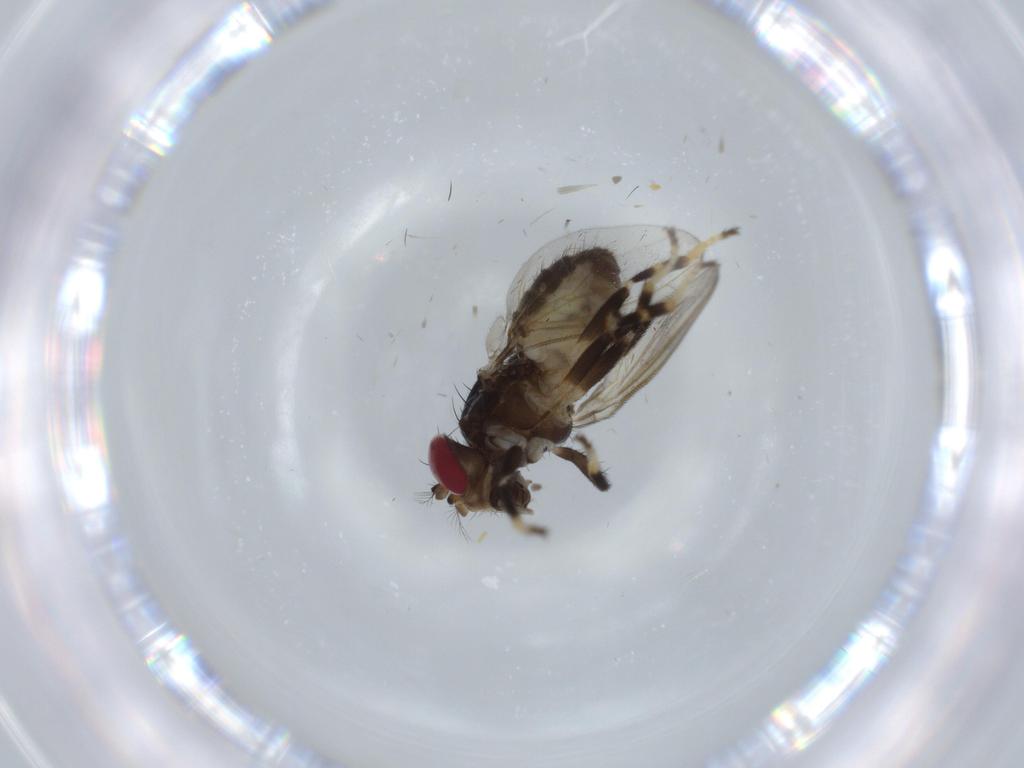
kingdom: Animalia
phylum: Arthropoda
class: Insecta
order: Diptera
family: Periscelididae
